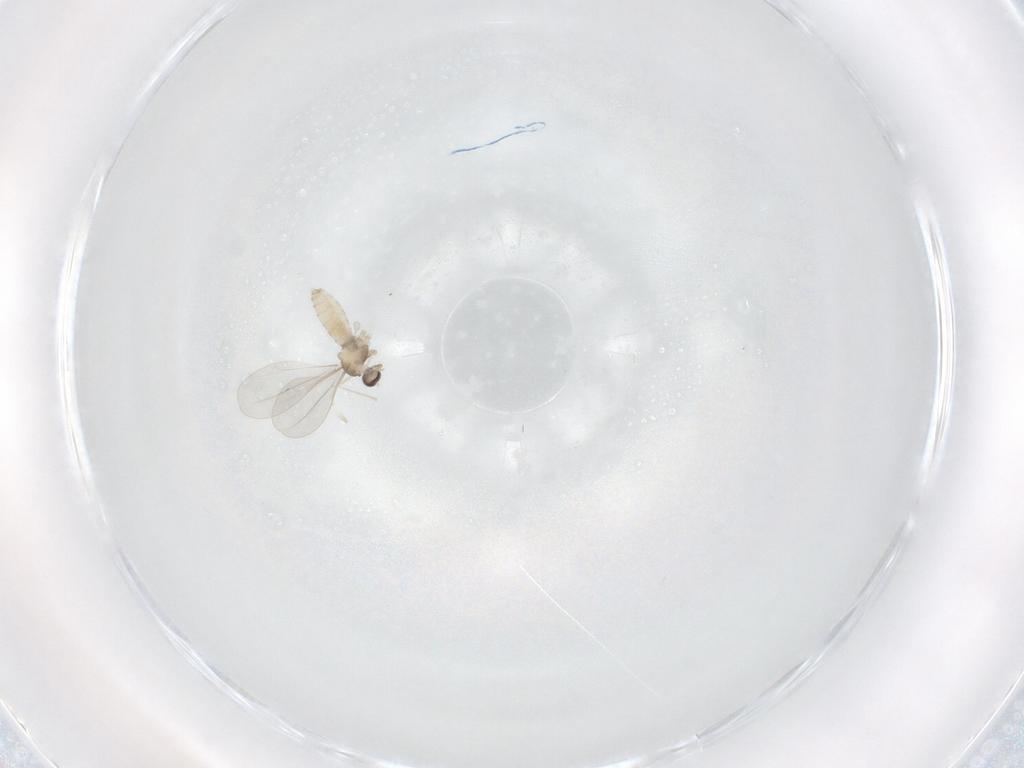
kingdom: Animalia
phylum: Arthropoda
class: Insecta
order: Diptera
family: Cecidomyiidae
